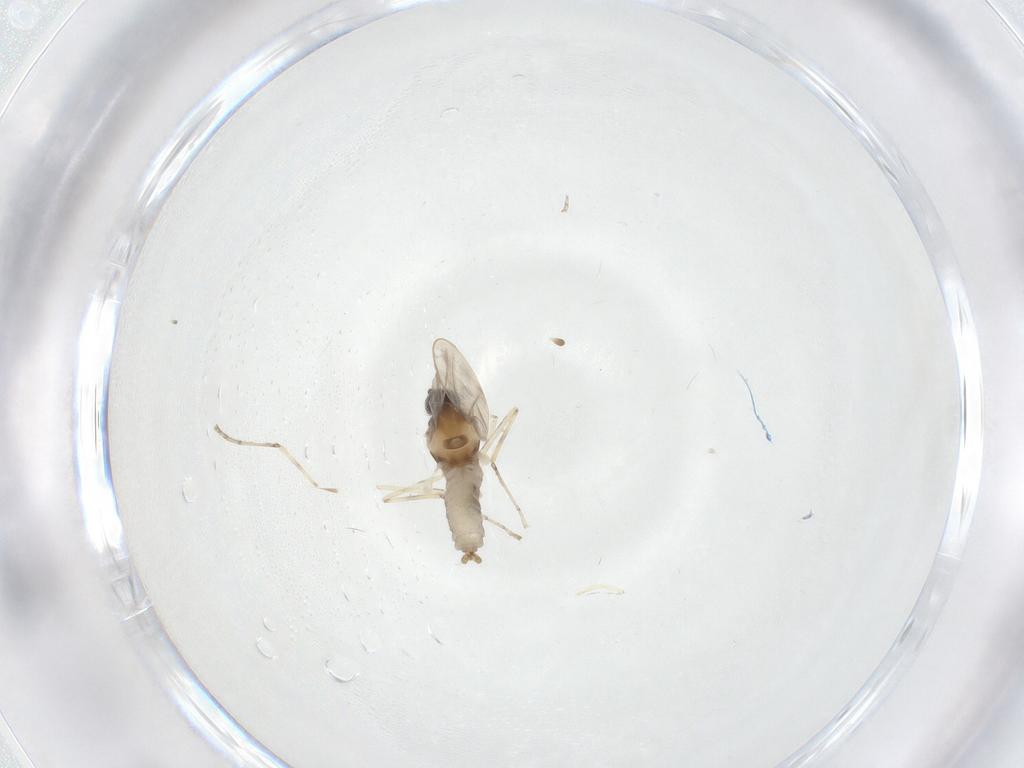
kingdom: Animalia
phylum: Arthropoda
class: Insecta
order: Diptera
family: Cecidomyiidae
